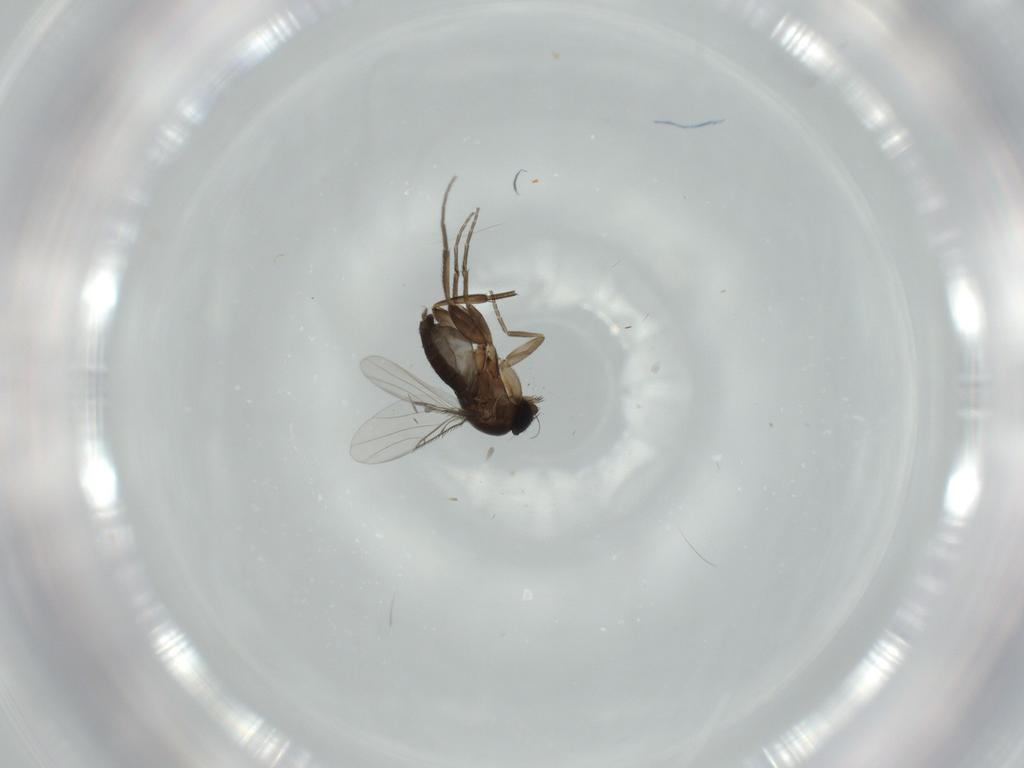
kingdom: Animalia
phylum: Arthropoda
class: Insecta
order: Diptera
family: Phoridae
